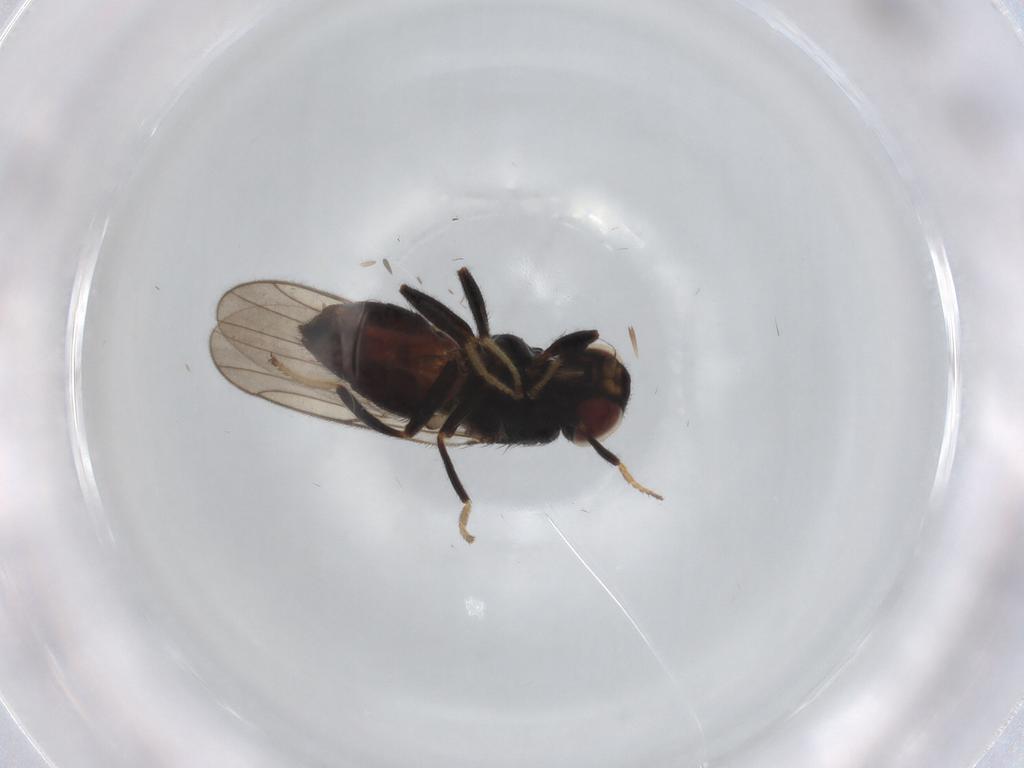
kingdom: Animalia
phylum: Arthropoda
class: Insecta
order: Diptera
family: Chloropidae
